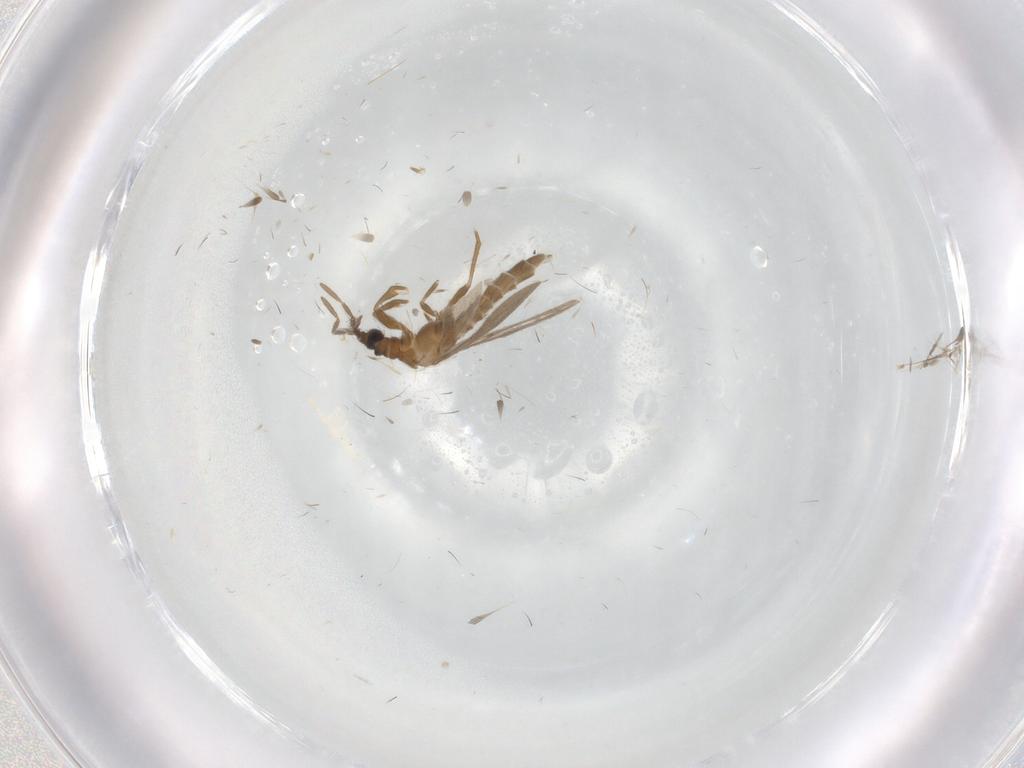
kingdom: Animalia
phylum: Arthropoda
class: Insecta
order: Hemiptera
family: Enicocephalidae
